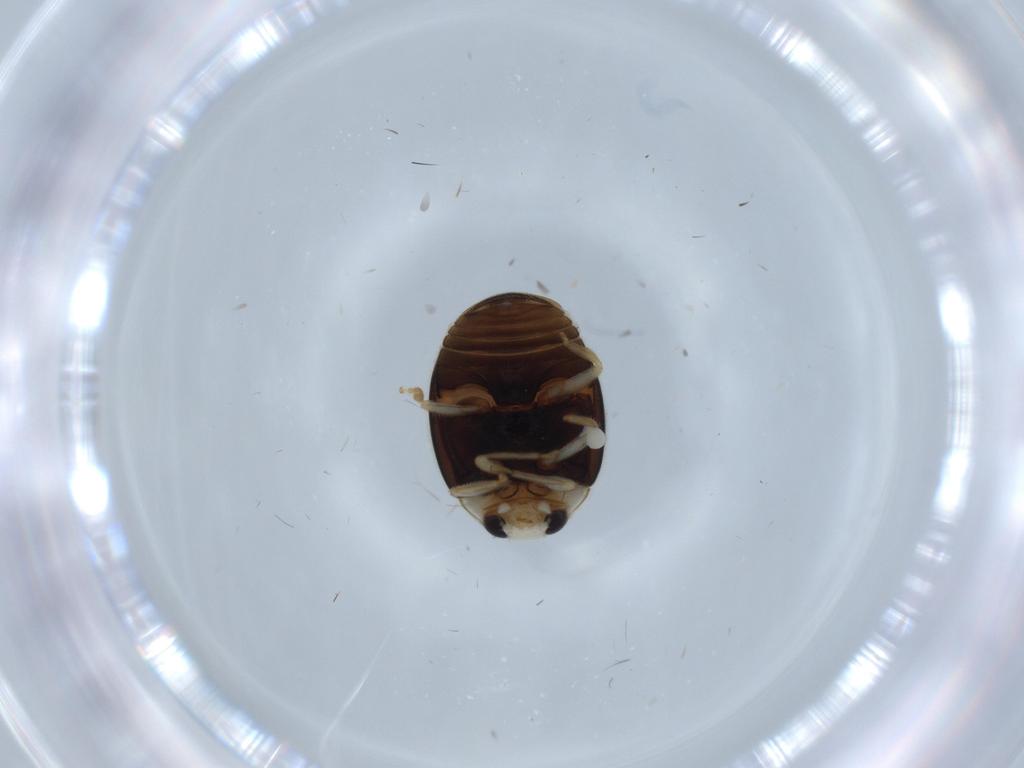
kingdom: Animalia
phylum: Arthropoda
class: Insecta
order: Coleoptera
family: Coccinellidae
